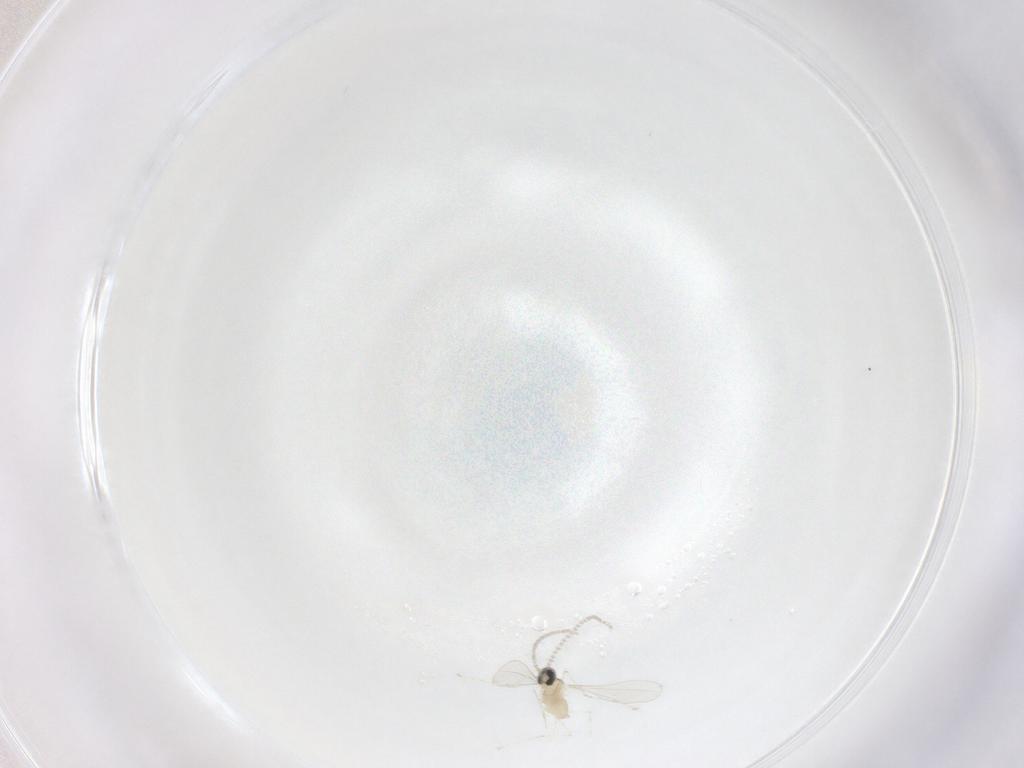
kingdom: Animalia
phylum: Arthropoda
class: Insecta
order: Diptera
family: Cecidomyiidae
